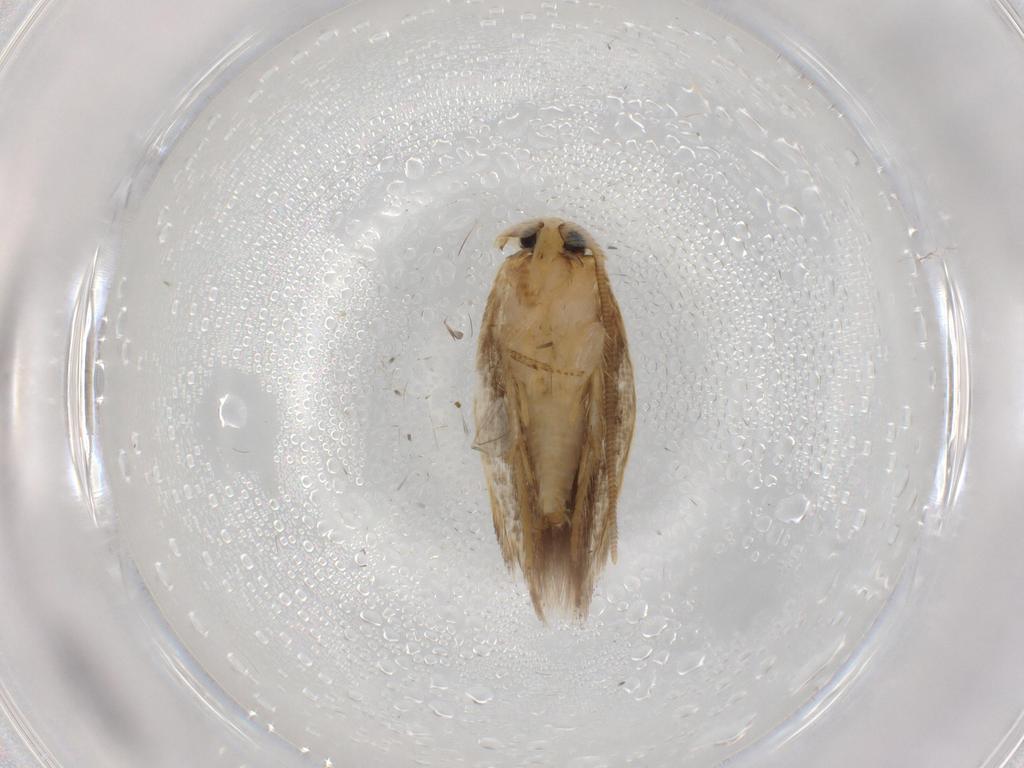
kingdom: Animalia
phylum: Arthropoda
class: Insecta
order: Lepidoptera
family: Opostegidae
